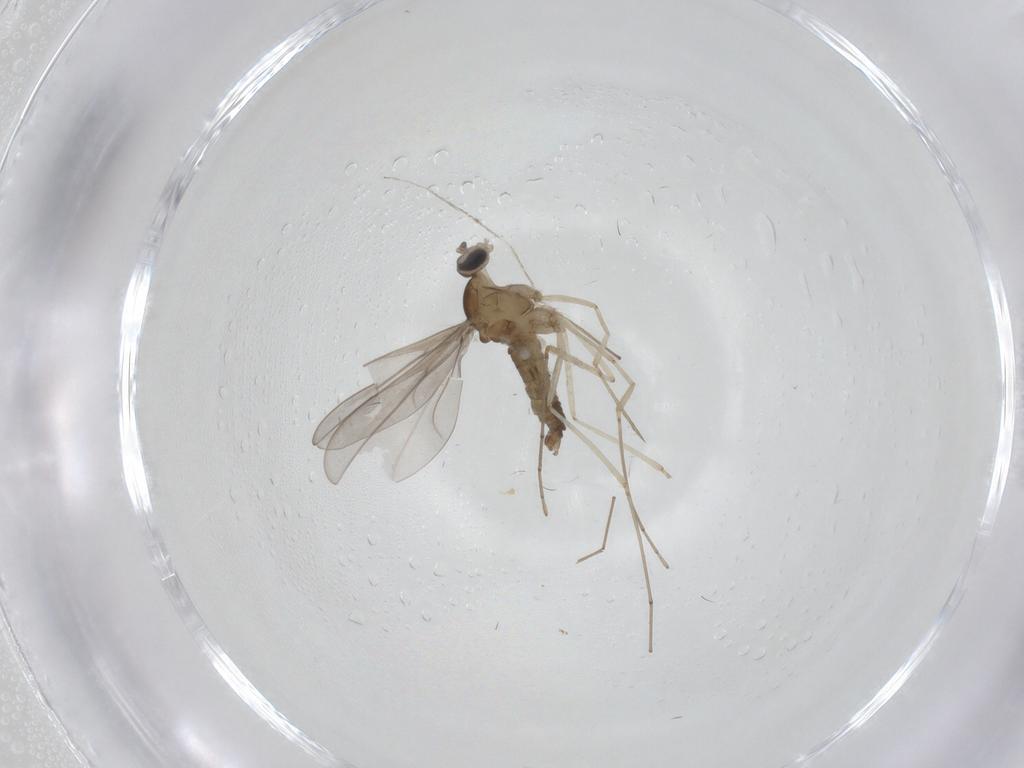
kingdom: Animalia
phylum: Arthropoda
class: Insecta
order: Diptera
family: Cecidomyiidae
